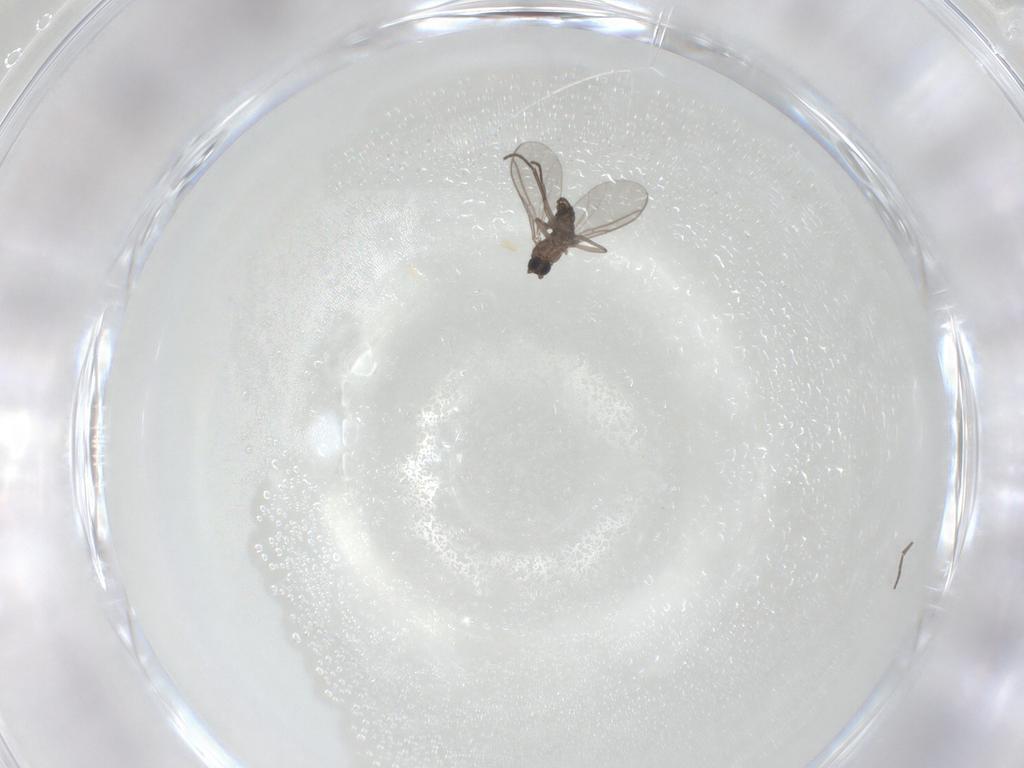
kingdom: Animalia
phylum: Arthropoda
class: Insecta
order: Diptera
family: Sciaridae
